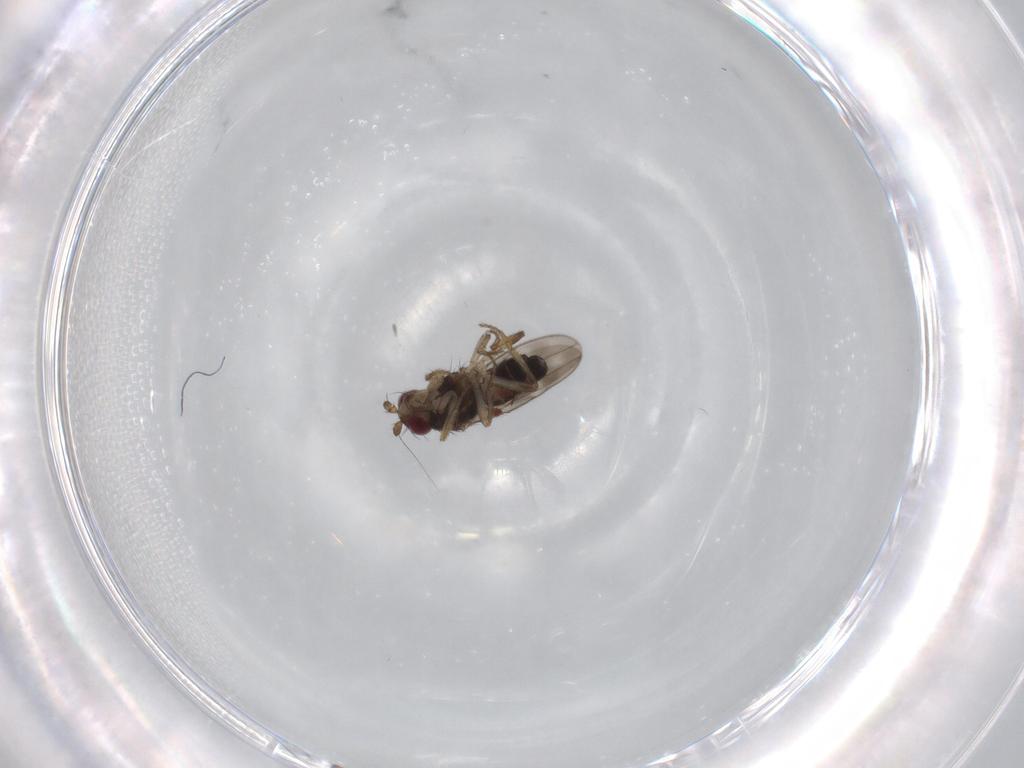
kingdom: Animalia
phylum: Arthropoda
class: Insecta
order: Diptera
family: Sphaeroceridae
